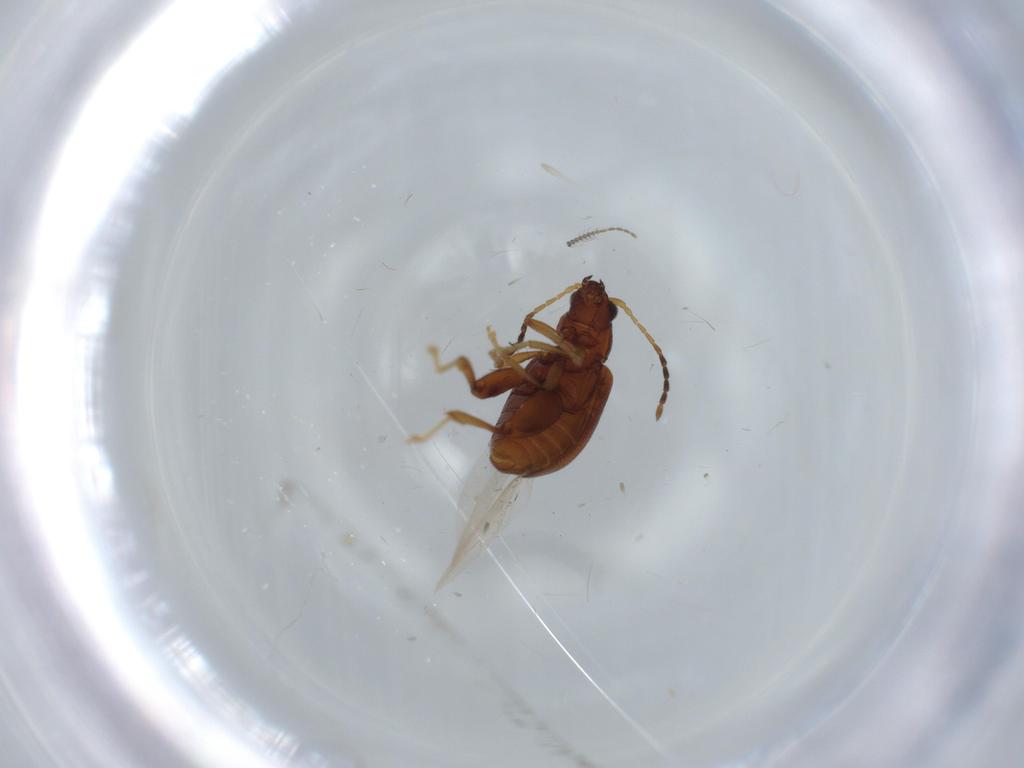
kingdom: Animalia
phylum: Arthropoda
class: Insecta
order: Coleoptera
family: Chrysomelidae
